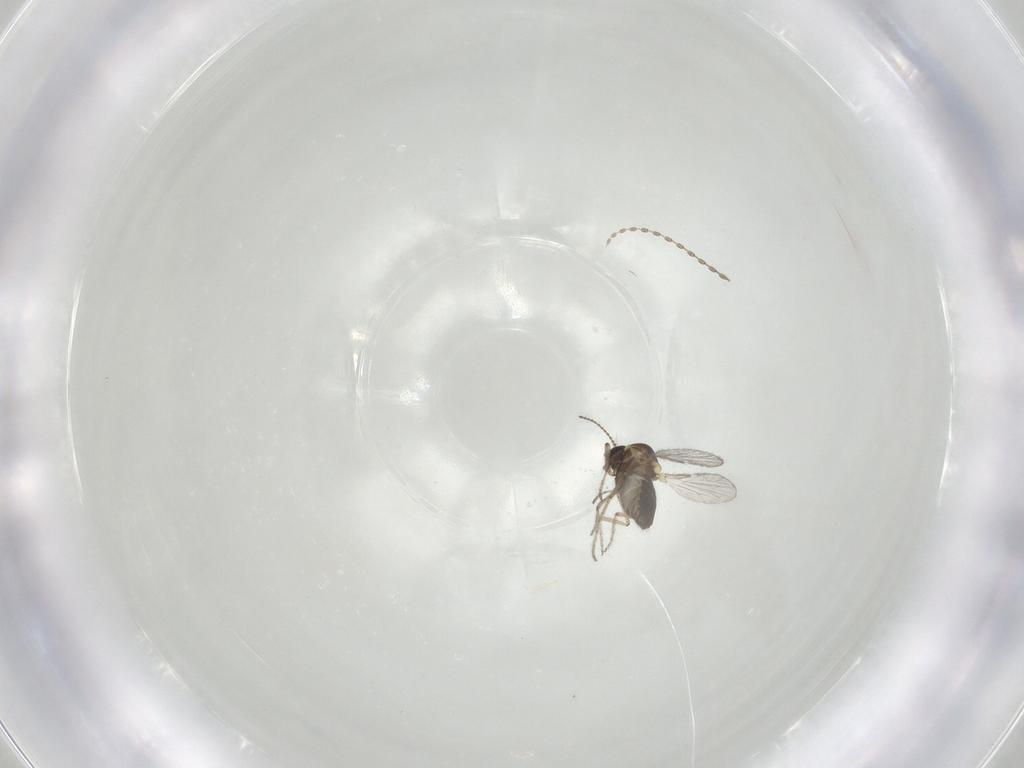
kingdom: Animalia
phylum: Arthropoda
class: Insecta
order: Diptera
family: Ceratopogonidae
